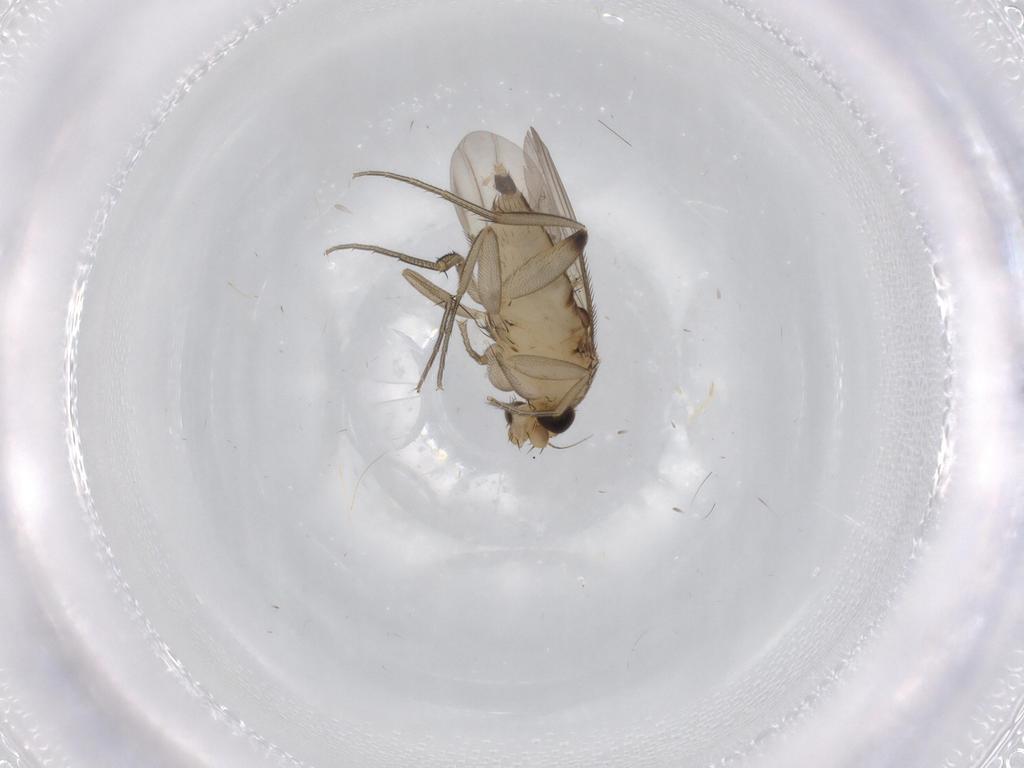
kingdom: Animalia
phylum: Arthropoda
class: Insecta
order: Diptera
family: Phoridae
